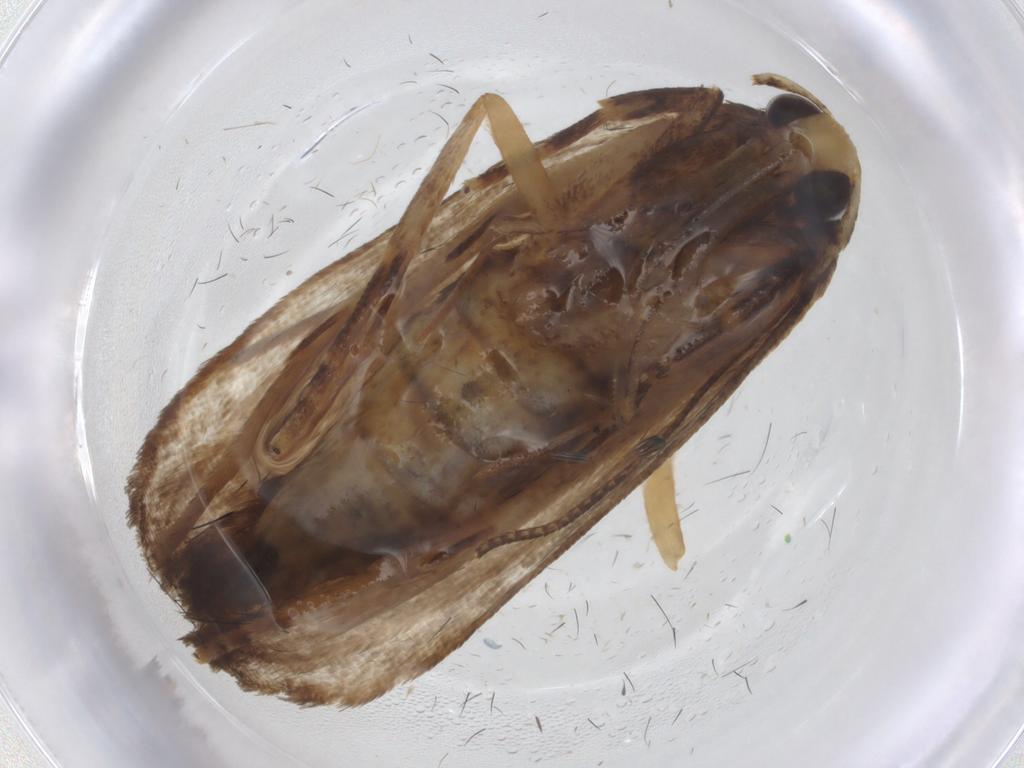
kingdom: Animalia
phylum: Arthropoda
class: Insecta
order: Lepidoptera
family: Autostichidae
